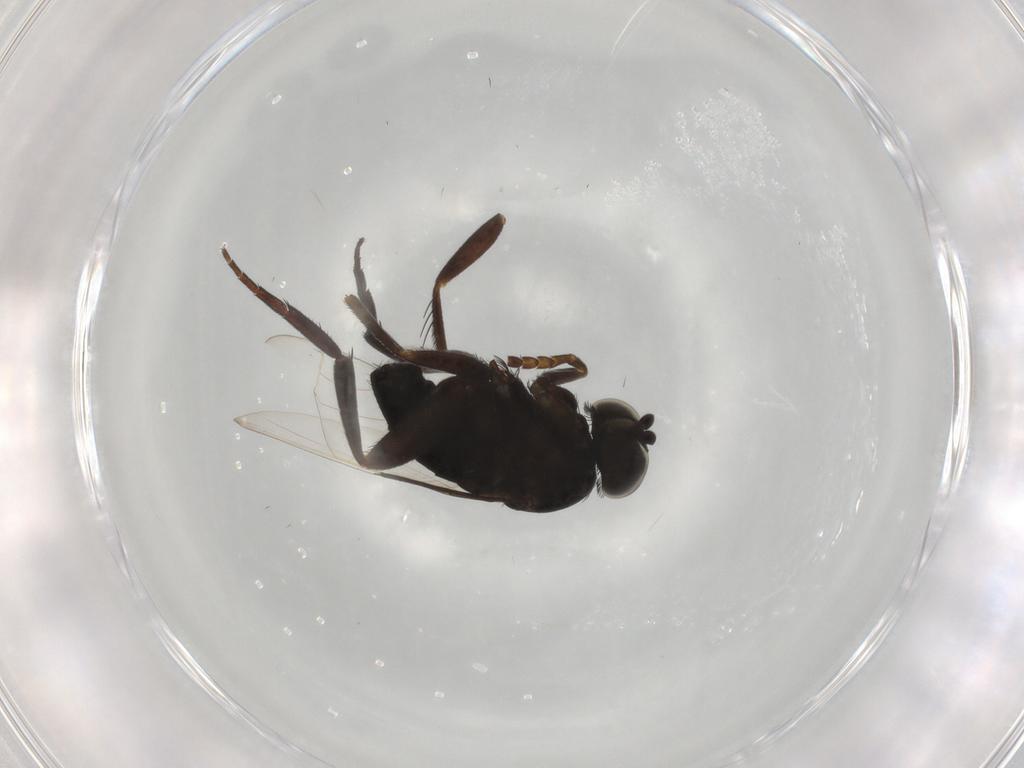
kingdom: Animalia
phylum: Arthropoda
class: Insecta
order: Diptera
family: Phoridae
